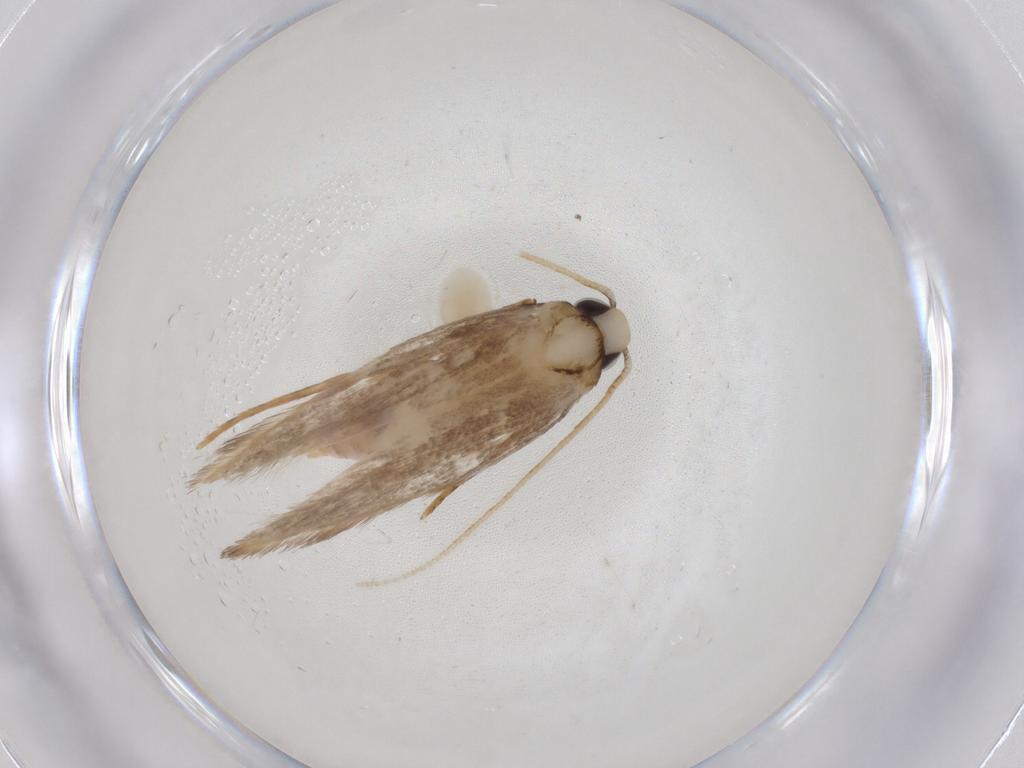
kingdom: Animalia
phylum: Arthropoda
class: Insecta
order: Lepidoptera
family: Coleophoridae
